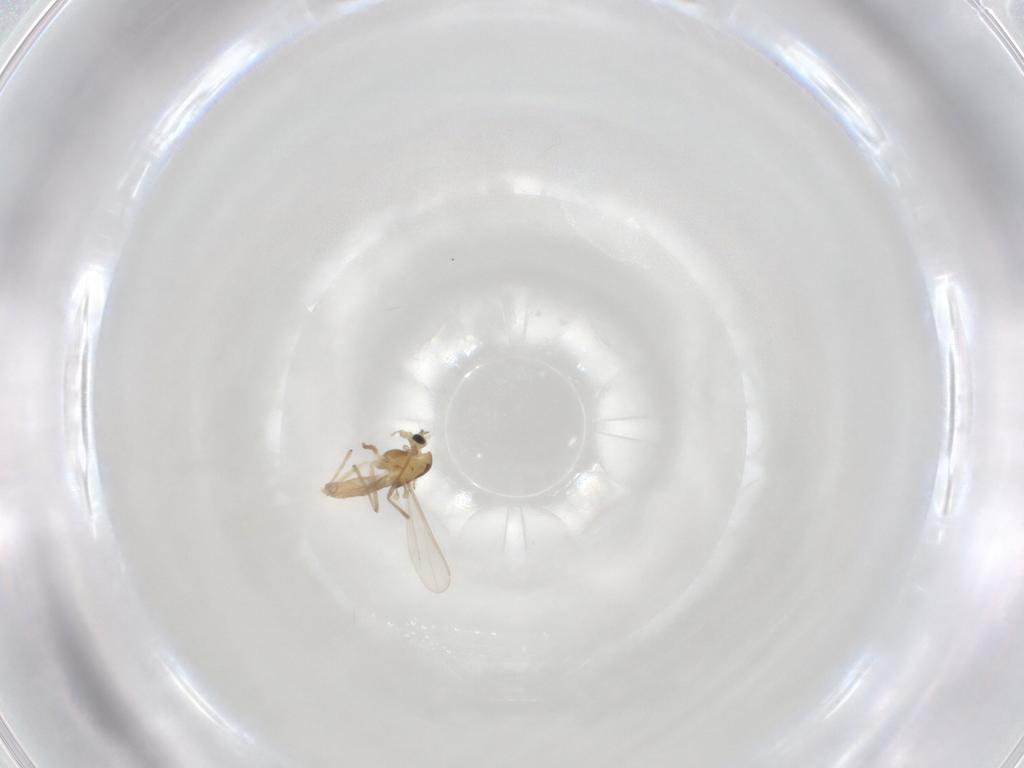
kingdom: Animalia
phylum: Arthropoda
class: Insecta
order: Diptera
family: Chironomidae
